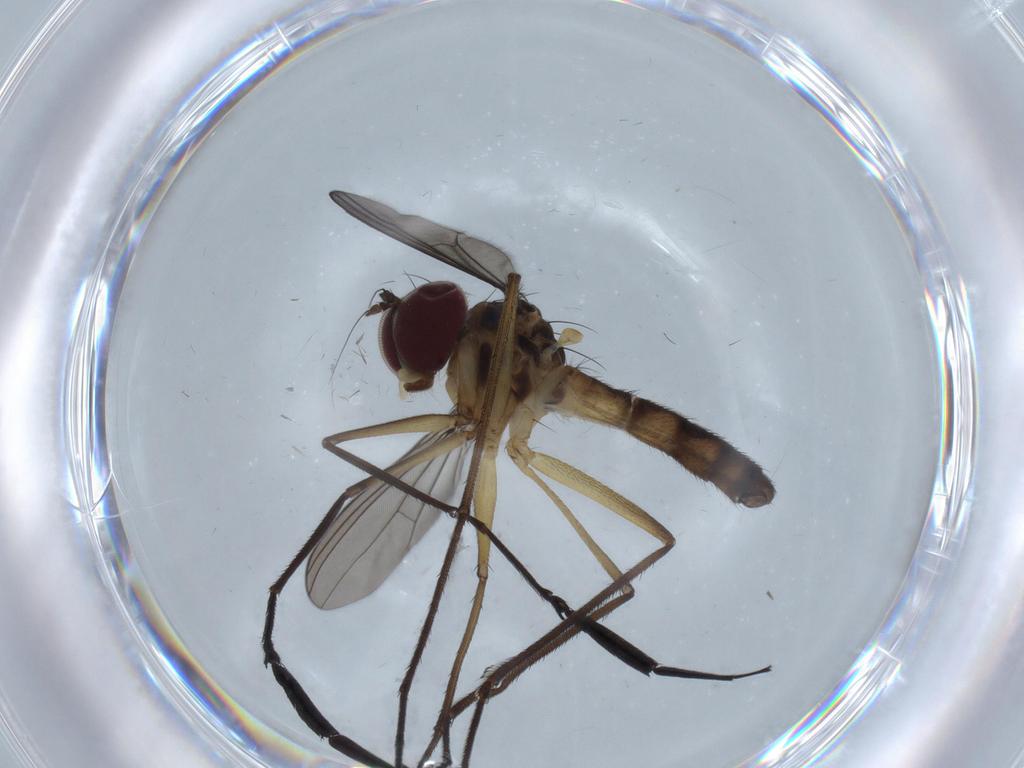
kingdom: Animalia
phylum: Arthropoda
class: Insecta
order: Diptera
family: Dolichopodidae
